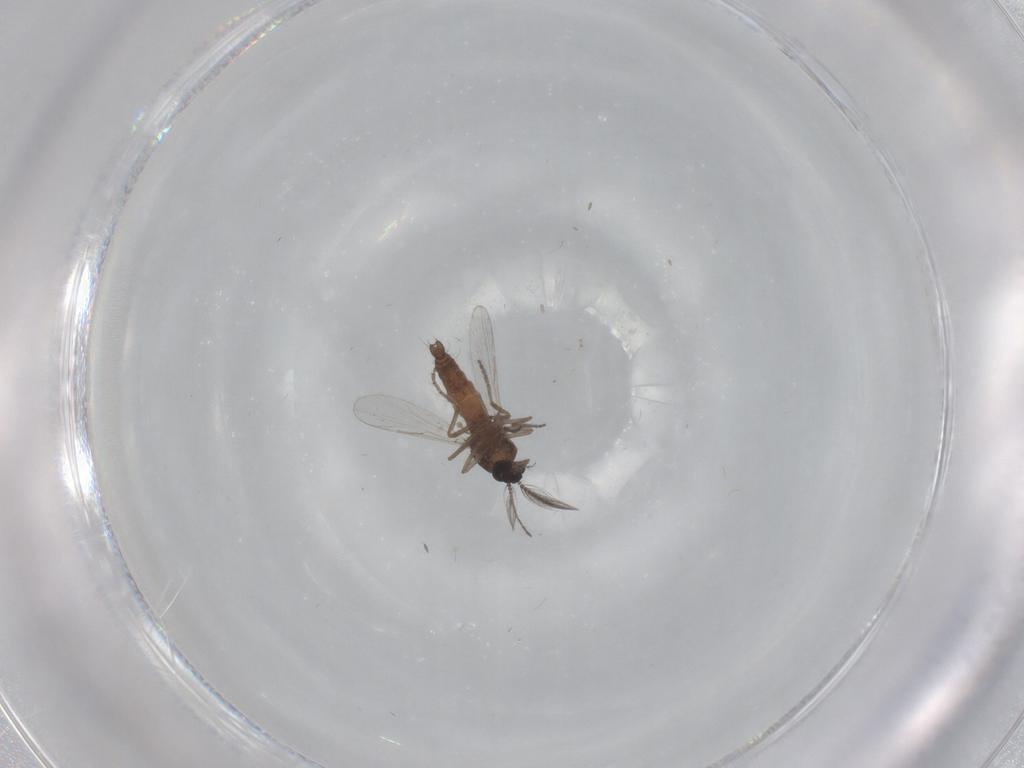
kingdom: Animalia
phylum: Arthropoda
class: Insecta
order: Diptera
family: Ceratopogonidae
